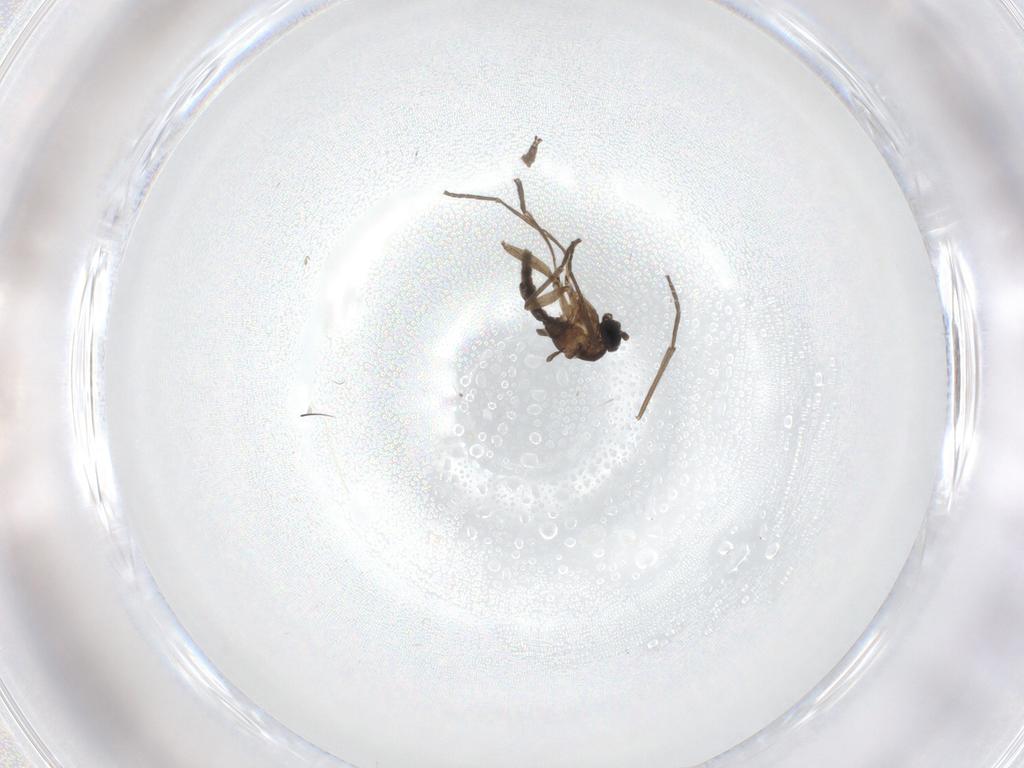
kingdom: Animalia
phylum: Arthropoda
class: Insecta
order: Diptera
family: Sciaridae
